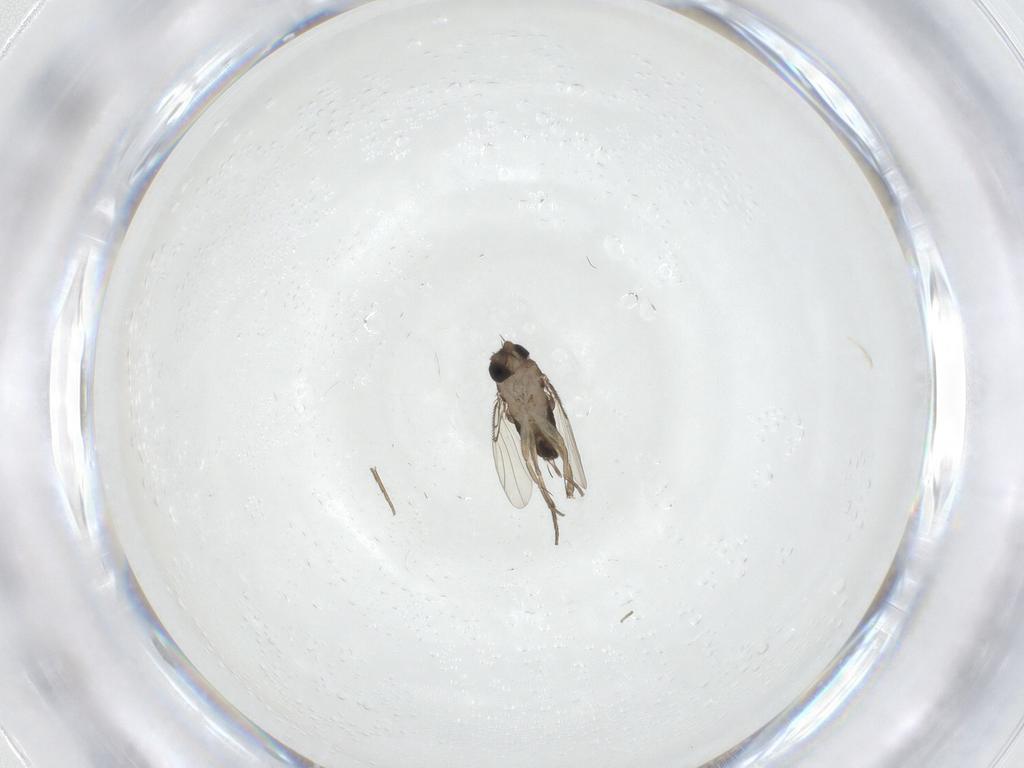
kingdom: Animalia
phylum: Arthropoda
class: Insecta
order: Diptera
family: Phoridae
